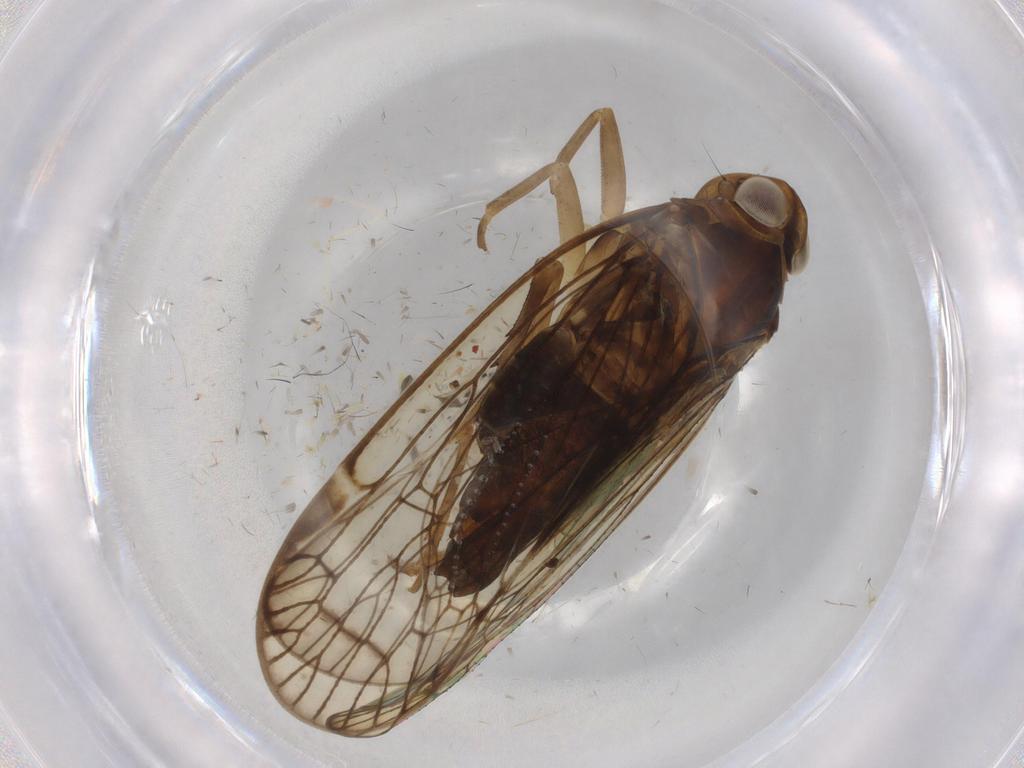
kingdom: Animalia
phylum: Arthropoda
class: Insecta
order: Hemiptera
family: Cixiidae
